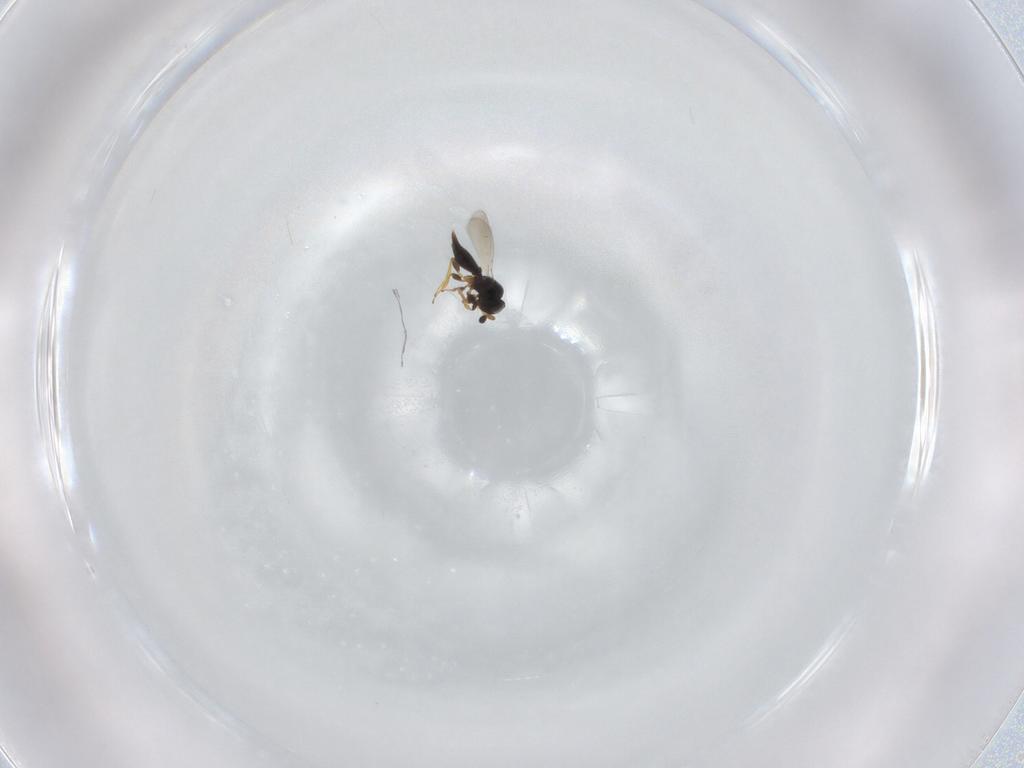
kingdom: Animalia
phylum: Arthropoda
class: Insecta
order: Hymenoptera
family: Platygastridae
